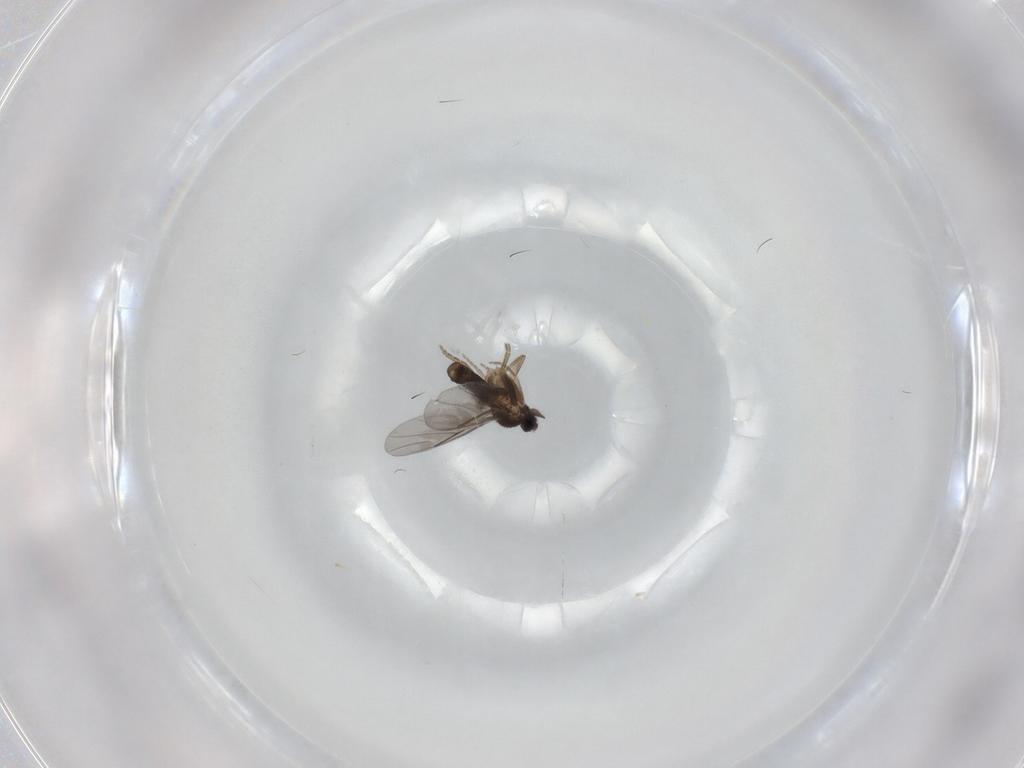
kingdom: Animalia
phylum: Arthropoda
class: Insecta
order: Diptera
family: Cecidomyiidae
